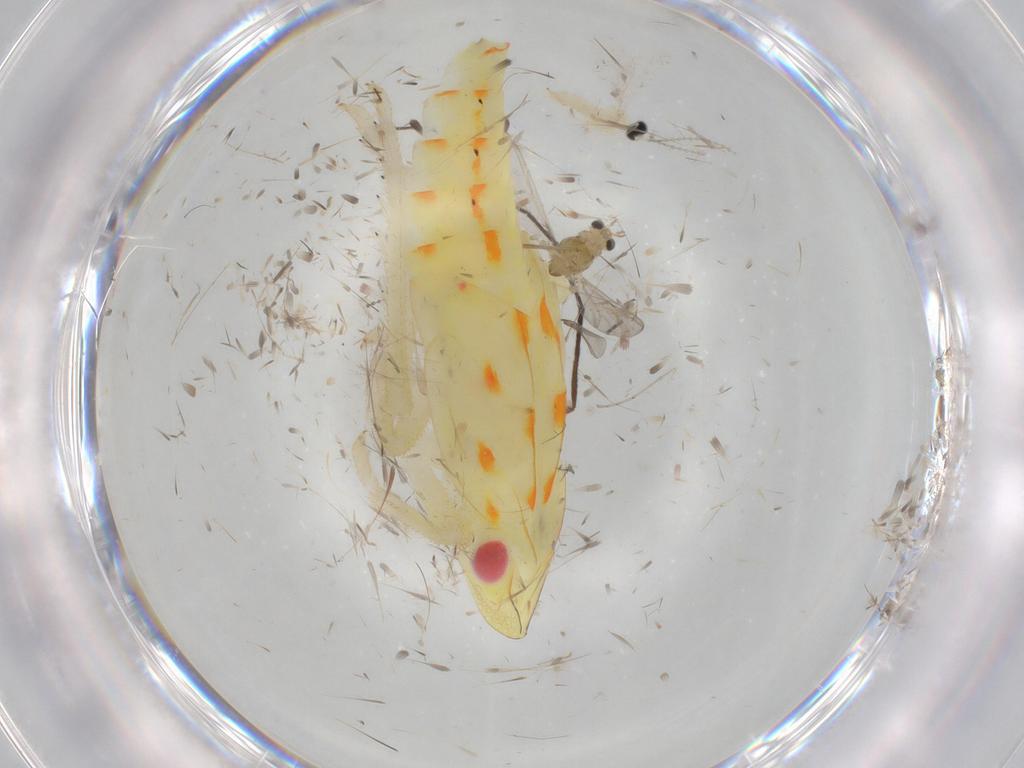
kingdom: Animalia
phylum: Arthropoda
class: Insecta
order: Hemiptera
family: Tropiduchidae
